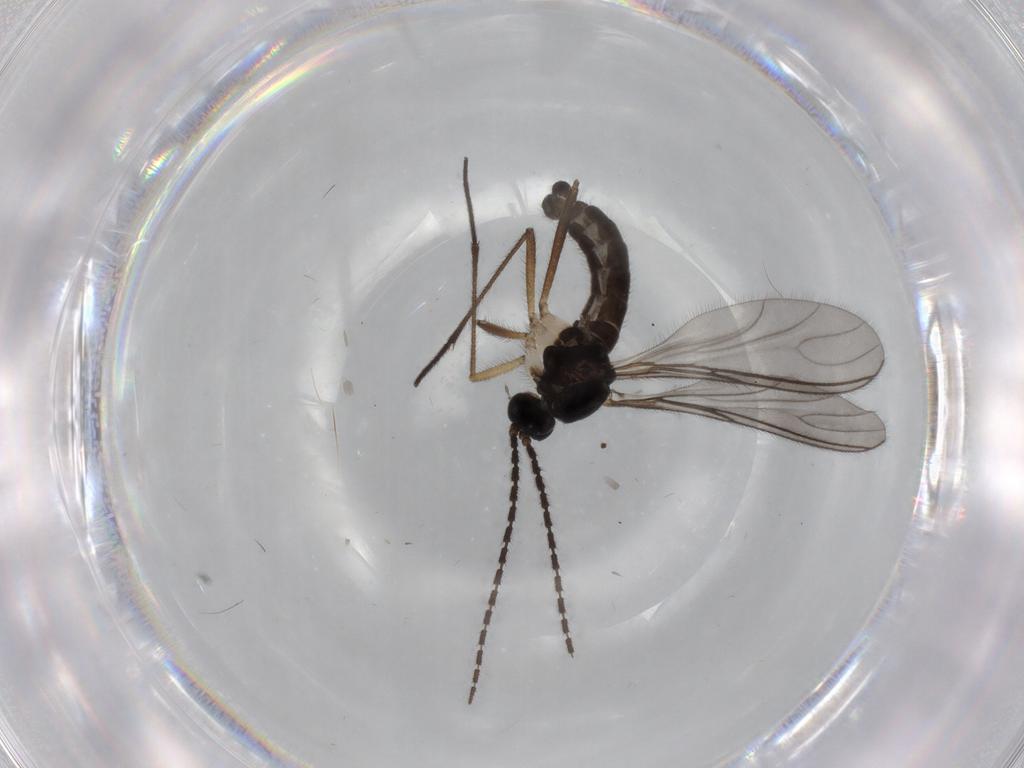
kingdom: Animalia
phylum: Arthropoda
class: Insecta
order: Diptera
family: Sciaridae
